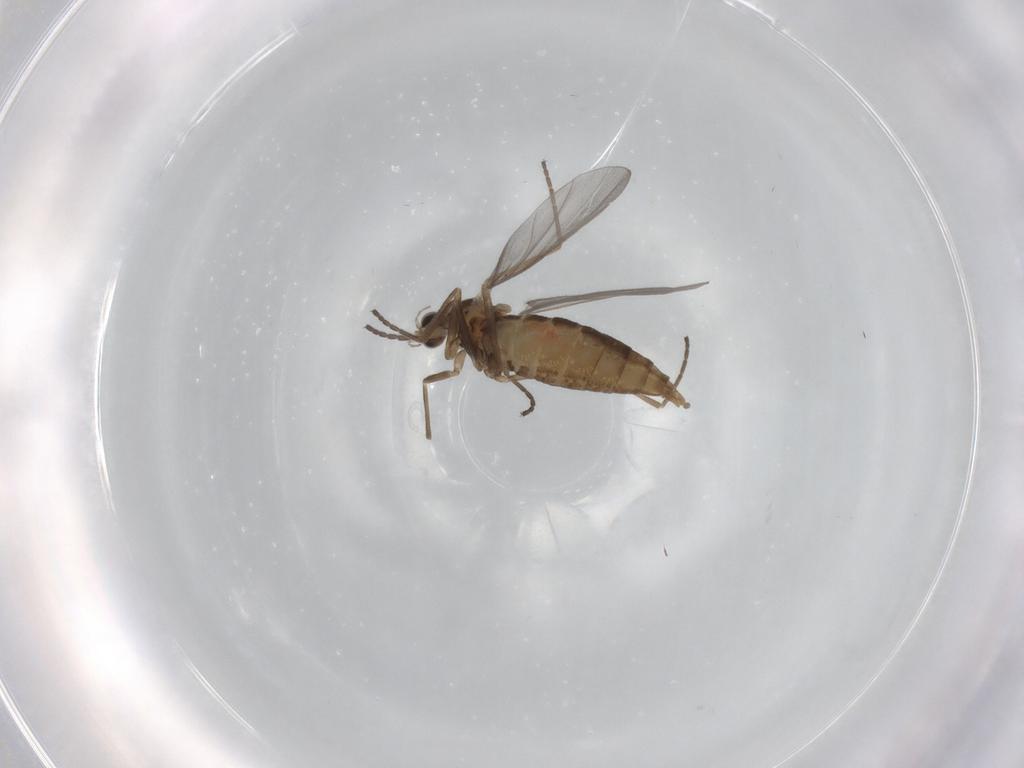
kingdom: Animalia
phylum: Arthropoda
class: Insecta
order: Diptera
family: Cecidomyiidae
